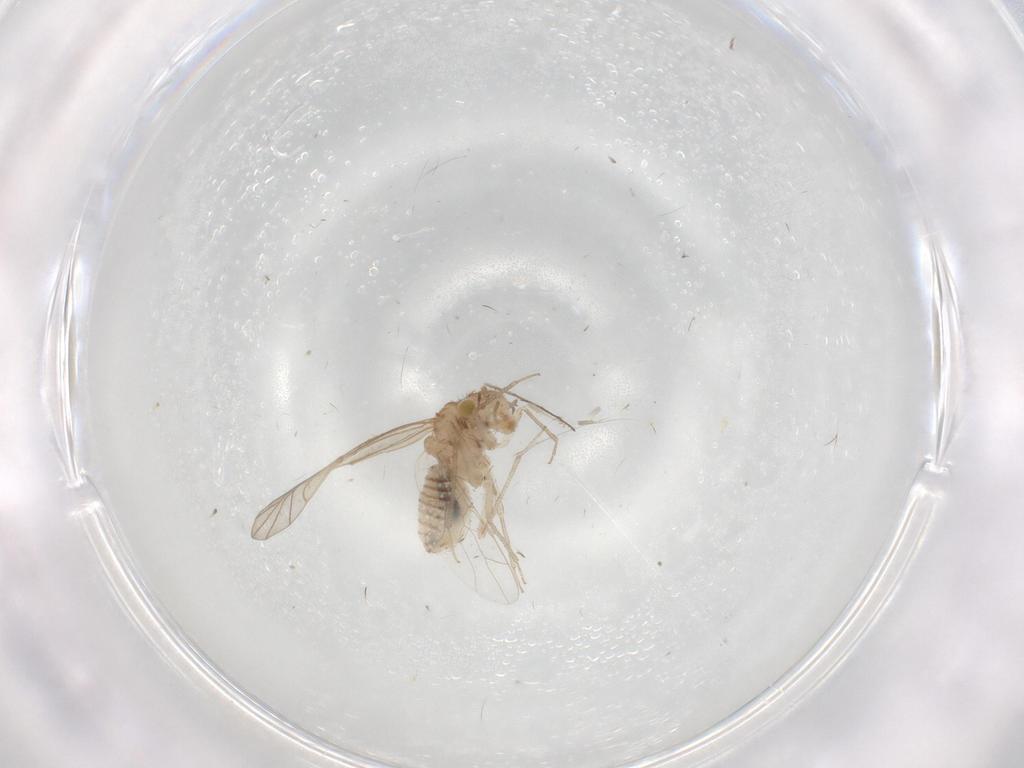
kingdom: Animalia
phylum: Arthropoda
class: Insecta
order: Psocodea
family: Lachesillidae
